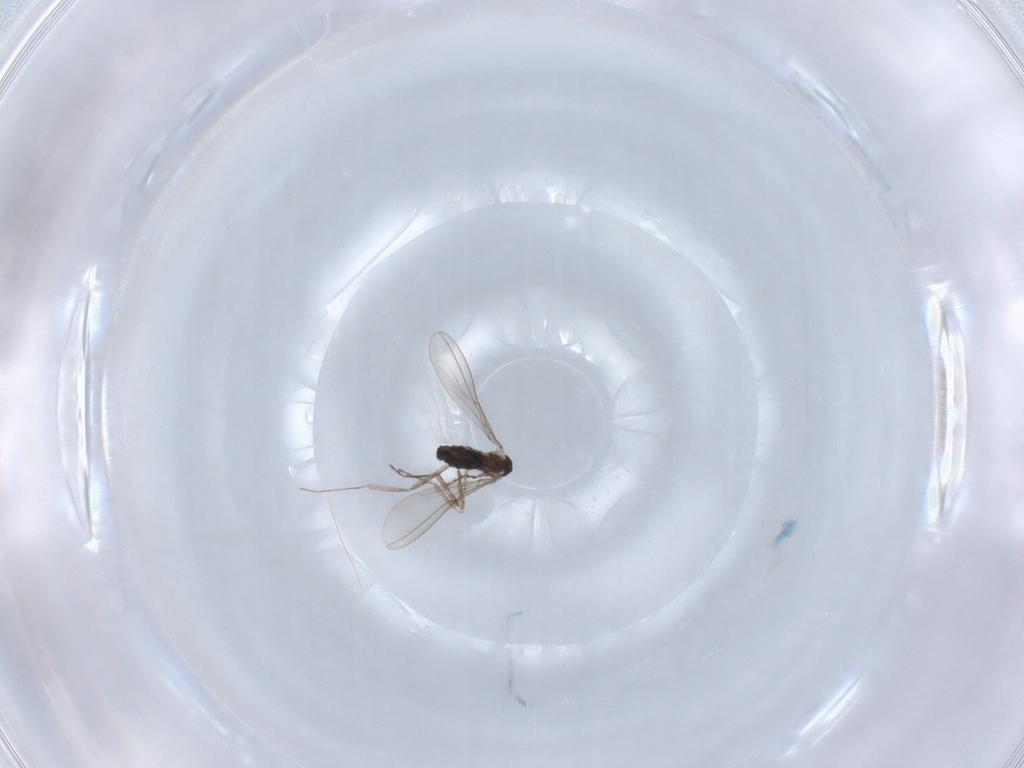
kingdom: Animalia
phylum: Arthropoda
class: Insecta
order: Diptera
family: Cecidomyiidae
